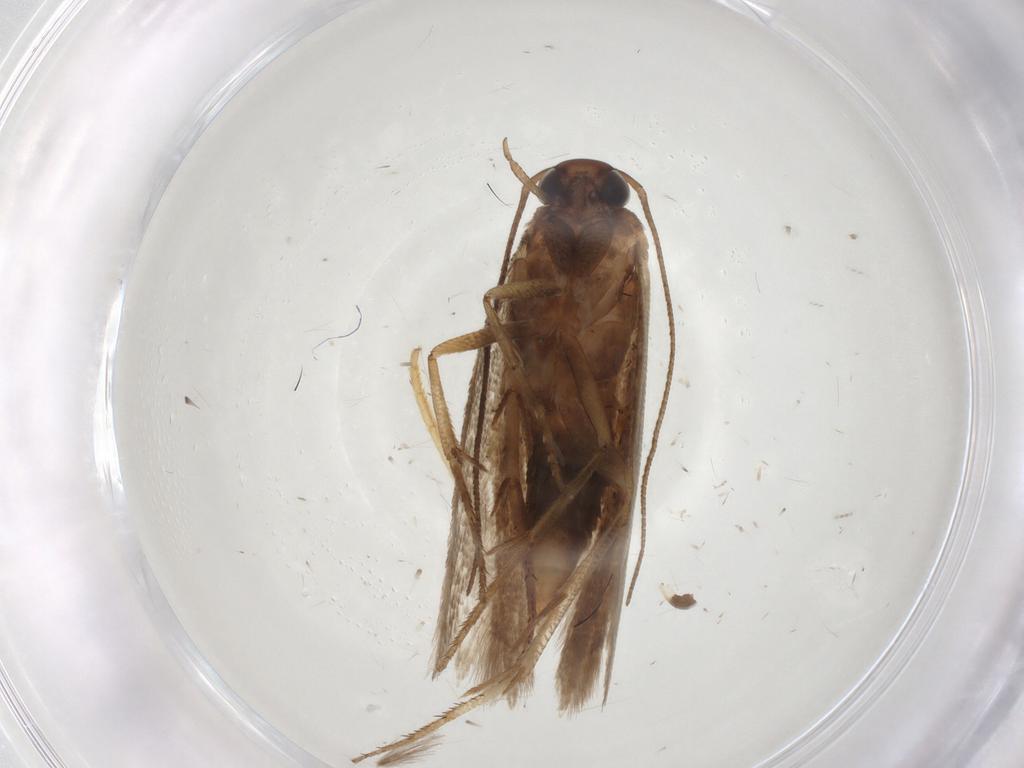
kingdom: Animalia
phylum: Arthropoda
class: Insecta
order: Lepidoptera
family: Gelechiidae
